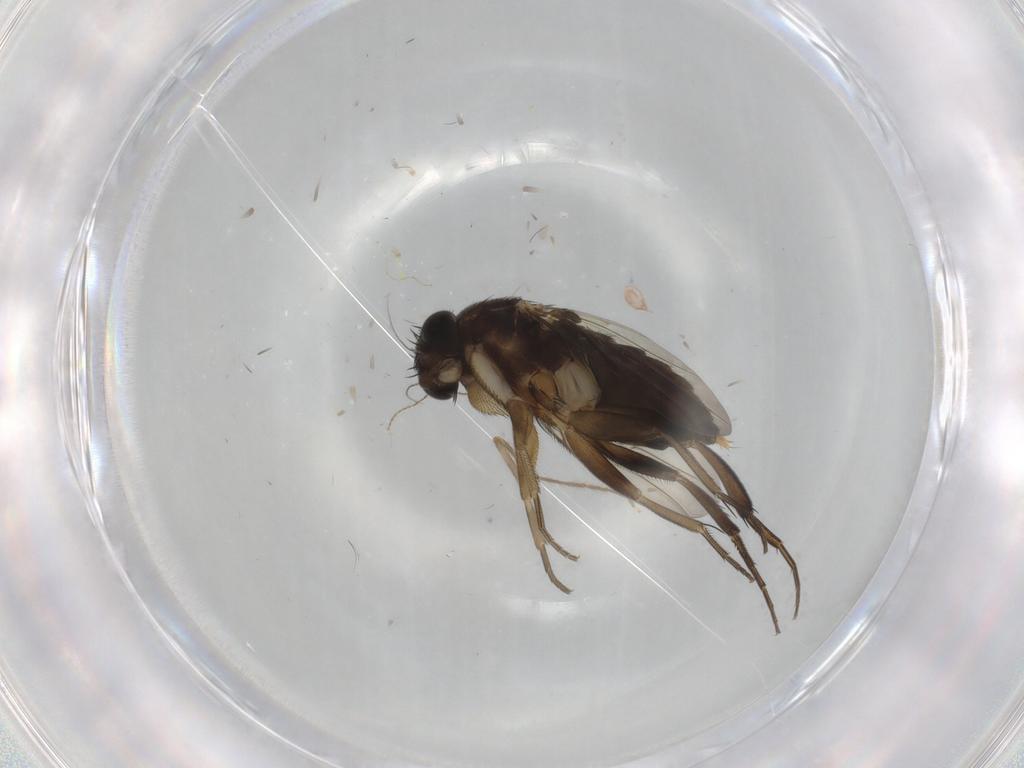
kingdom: Animalia
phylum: Arthropoda
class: Insecta
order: Diptera
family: Phoridae
